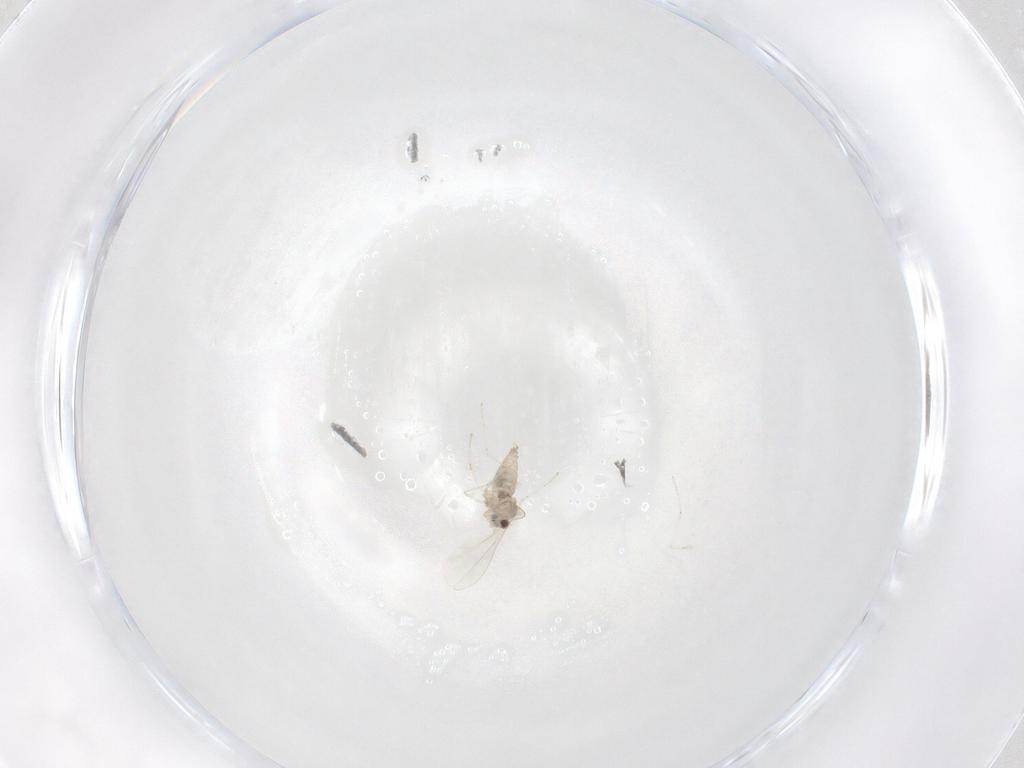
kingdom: Animalia
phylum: Arthropoda
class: Insecta
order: Diptera
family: Cecidomyiidae
